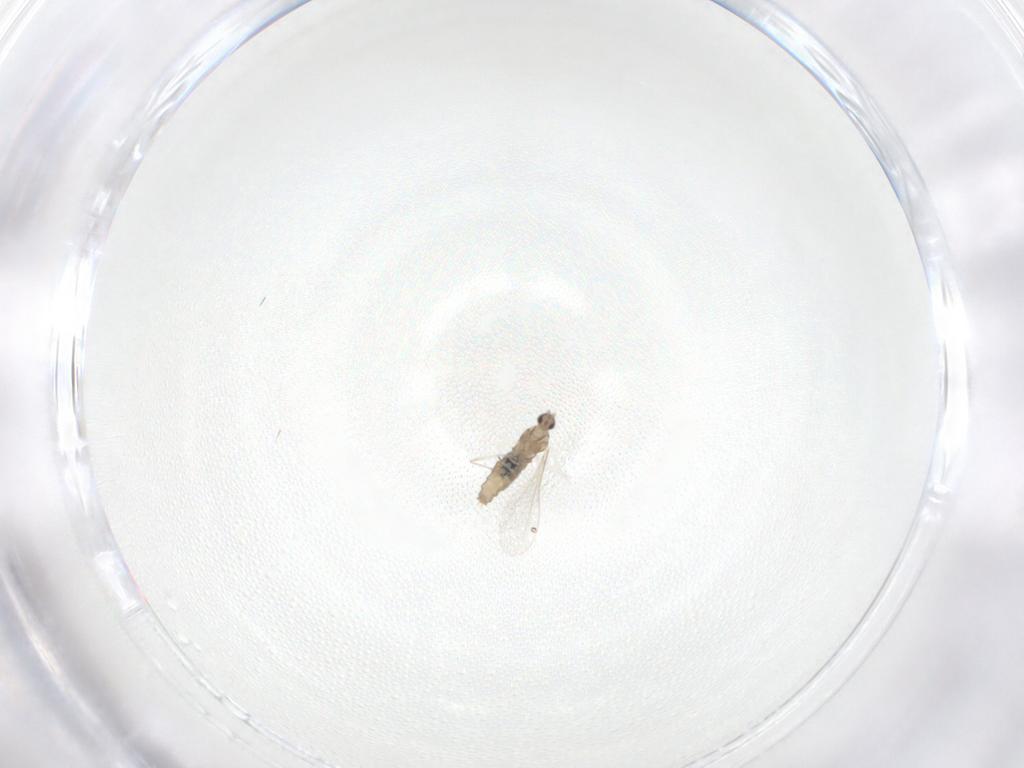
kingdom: Animalia
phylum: Arthropoda
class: Insecta
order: Diptera
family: Cecidomyiidae
